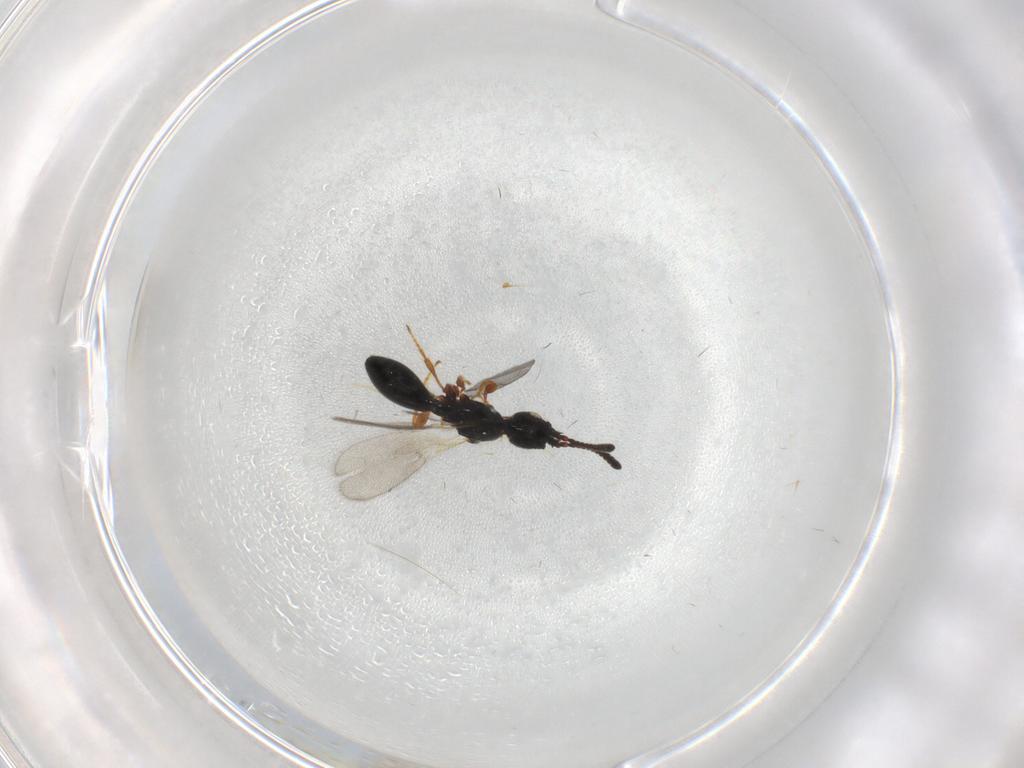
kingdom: Animalia
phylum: Arthropoda
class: Insecta
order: Hymenoptera
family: Diapriidae
